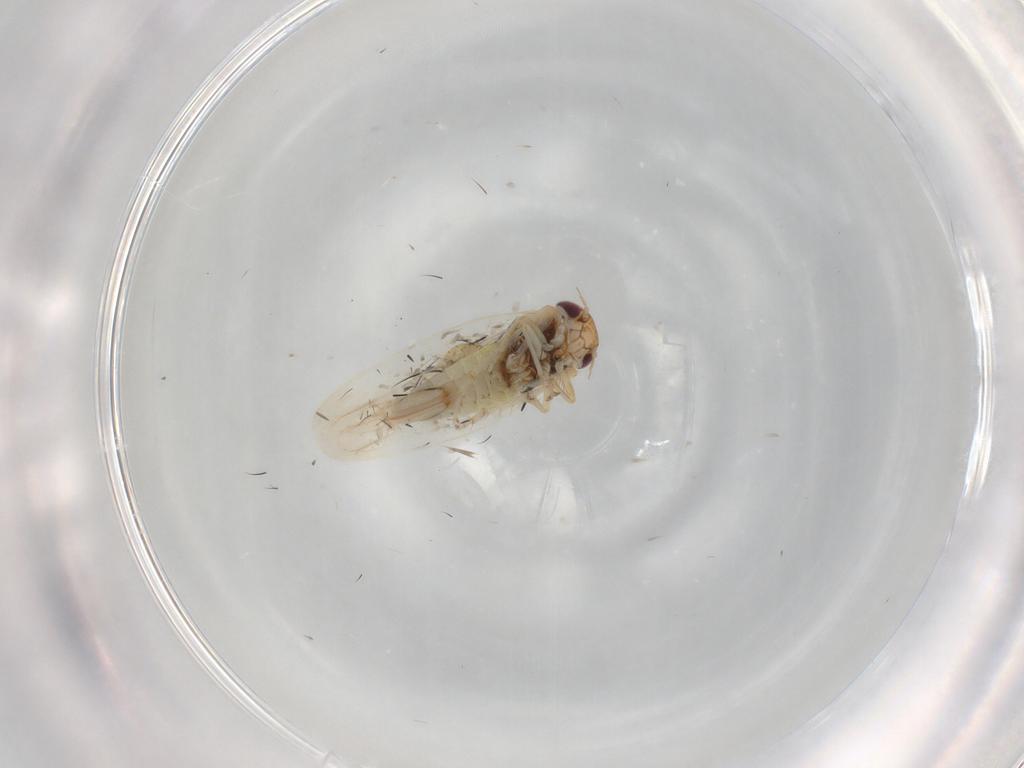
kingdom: Animalia
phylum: Arthropoda
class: Insecta
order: Hemiptera
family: Cicadellidae
